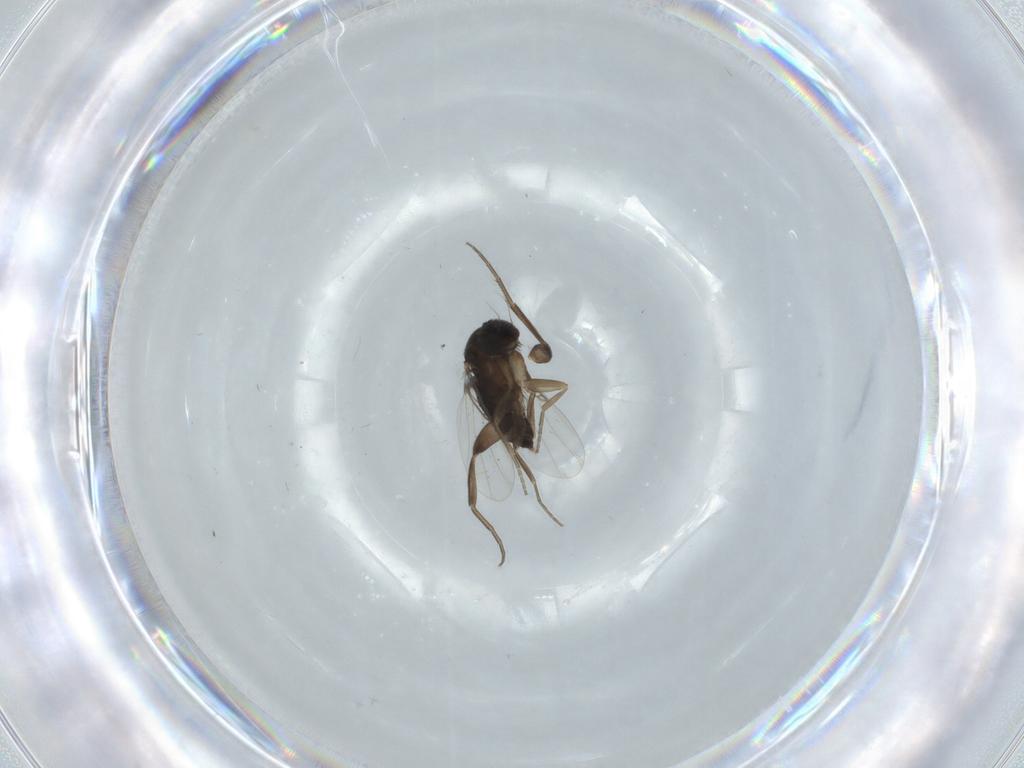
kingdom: Animalia
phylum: Arthropoda
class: Insecta
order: Diptera
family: Phoridae
